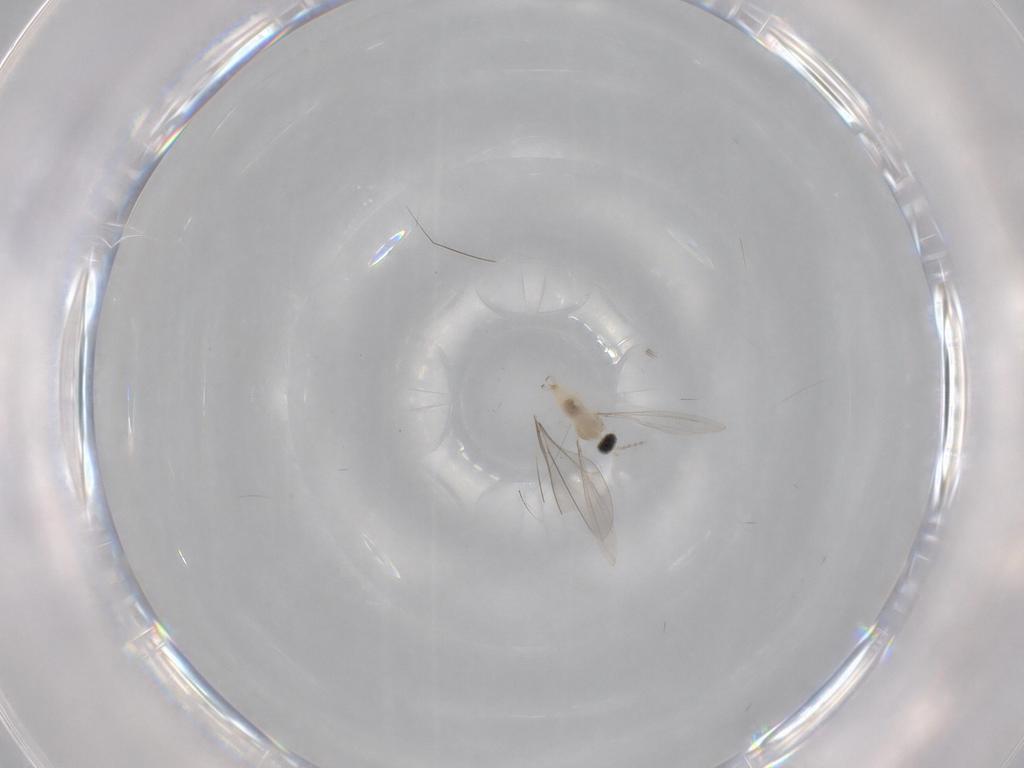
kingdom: Animalia
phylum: Arthropoda
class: Insecta
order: Diptera
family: Cecidomyiidae
